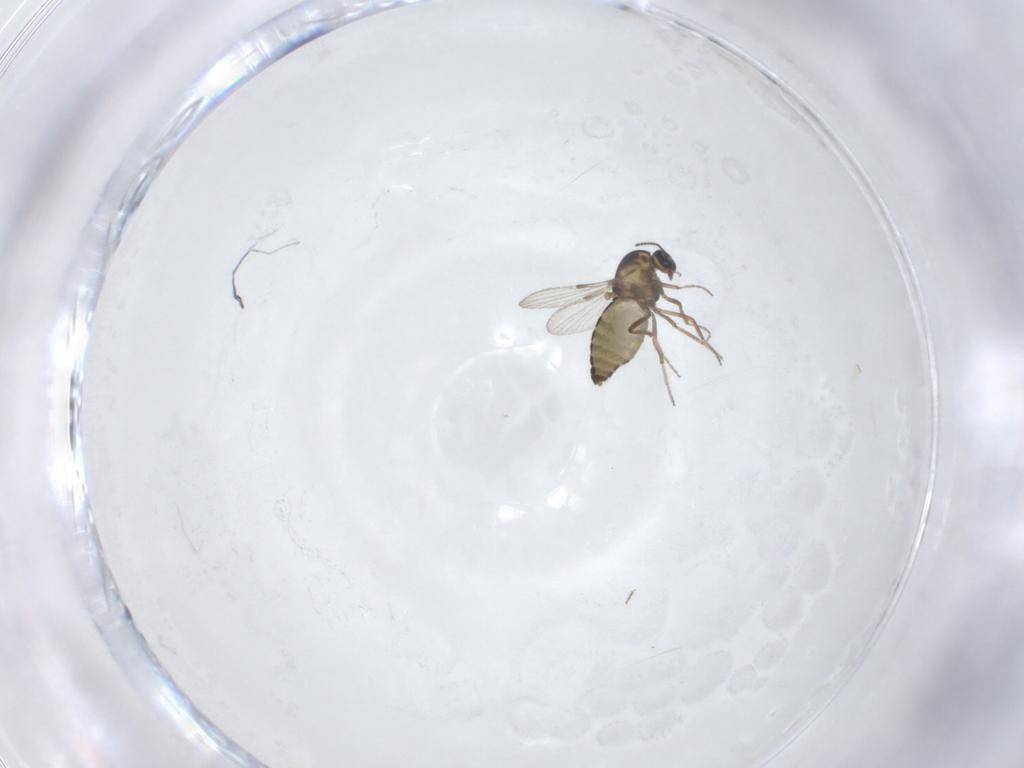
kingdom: Animalia
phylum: Arthropoda
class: Insecta
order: Diptera
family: Ceratopogonidae
